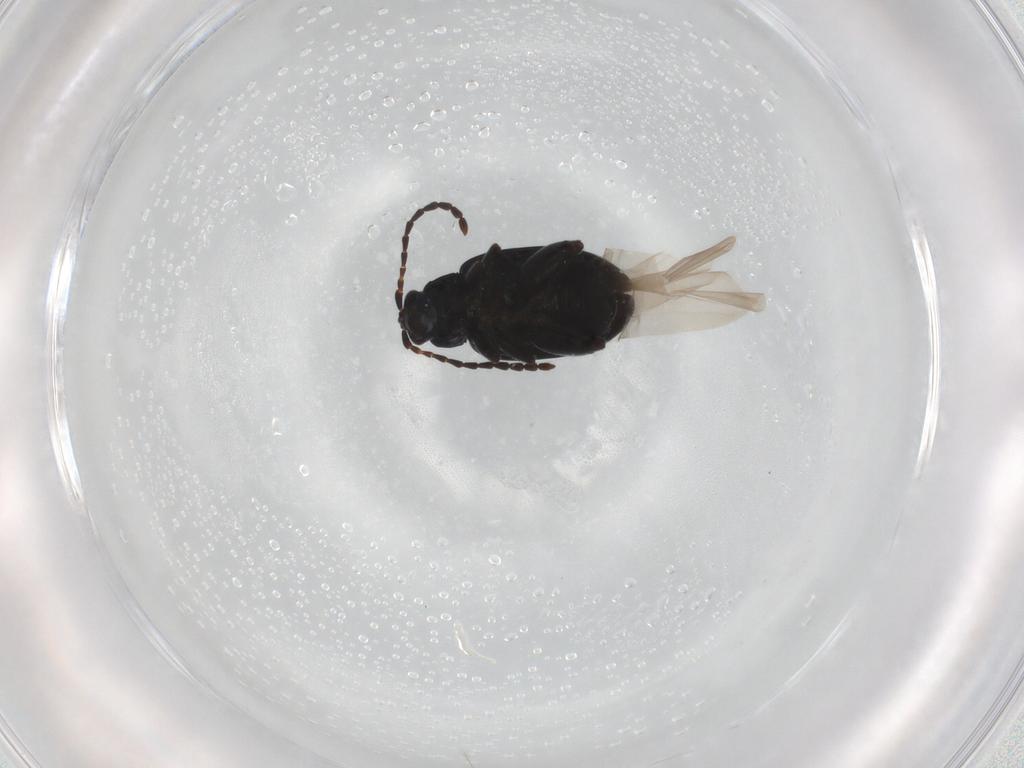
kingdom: Animalia
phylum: Arthropoda
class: Insecta
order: Coleoptera
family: Chrysomelidae
